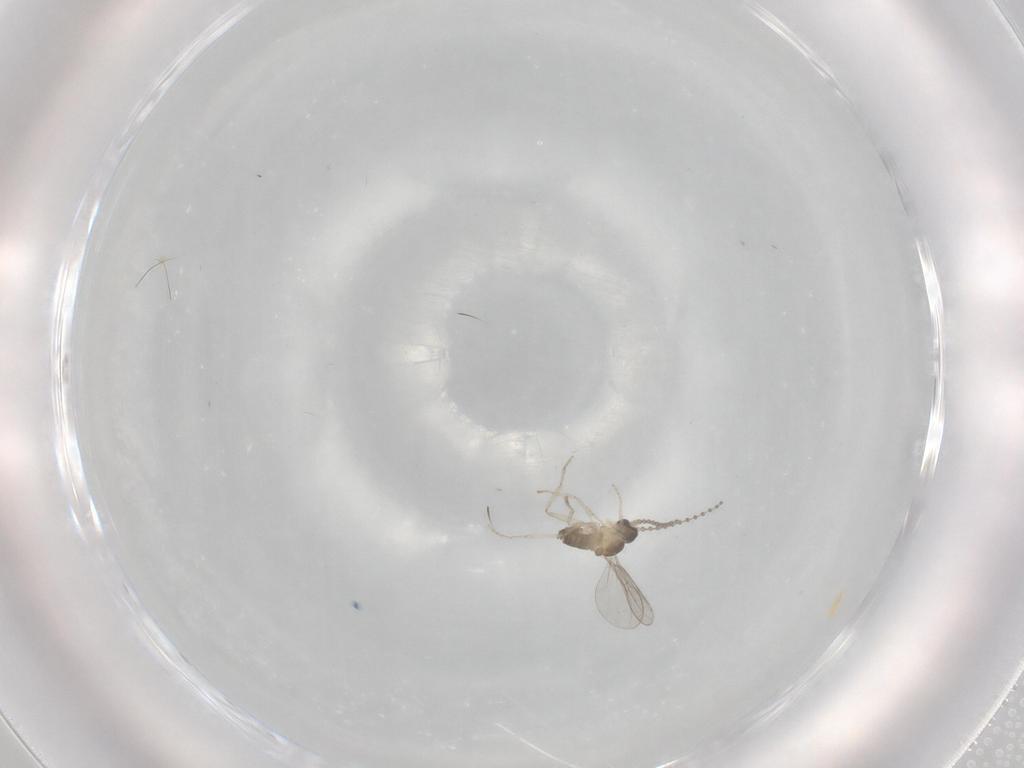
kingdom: Animalia
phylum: Arthropoda
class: Insecta
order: Diptera
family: Cecidomyiidae
